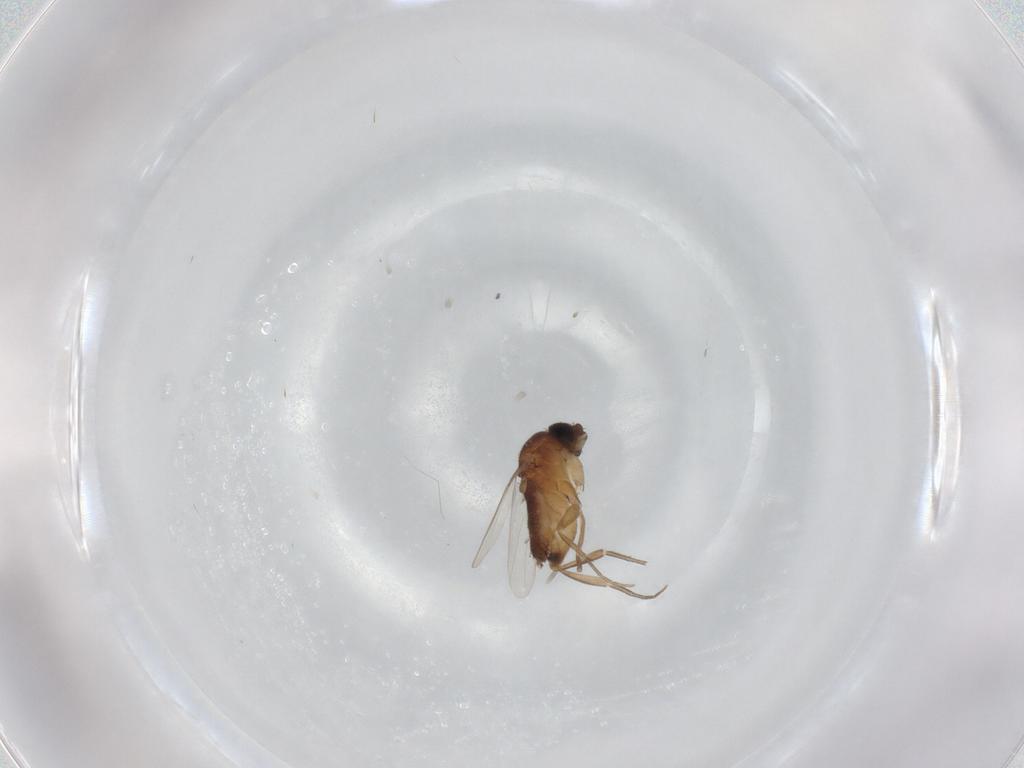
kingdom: Animalia
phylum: Arthropoda
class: Insecta
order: Diptera
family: Phoridae
